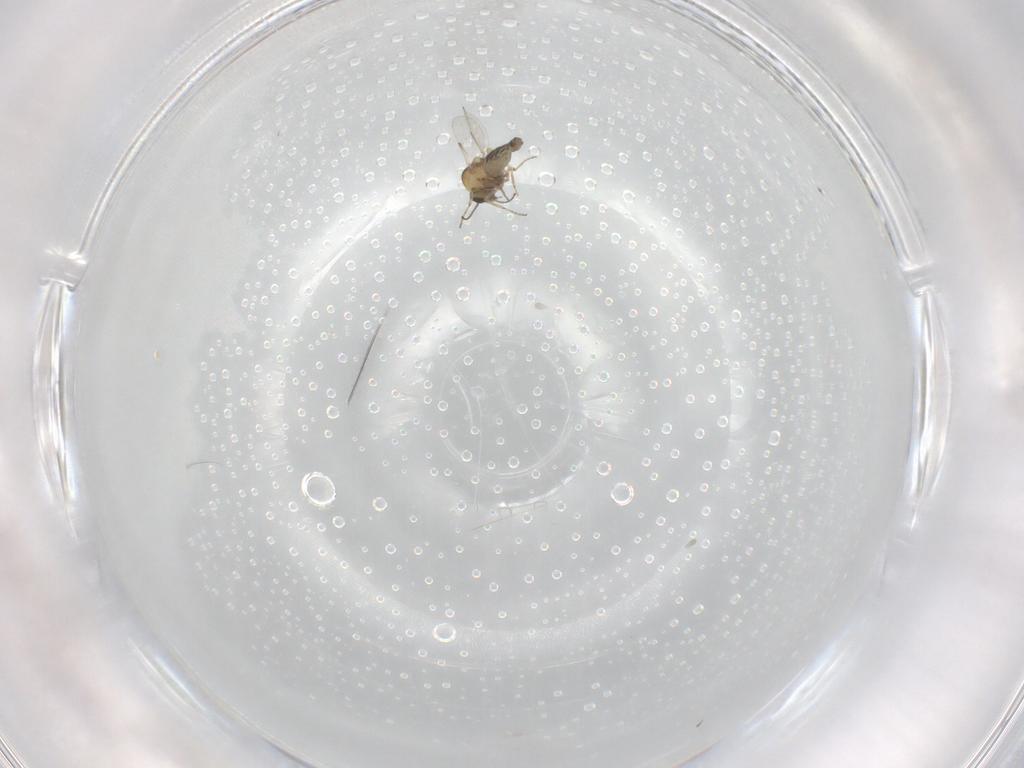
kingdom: Animalia
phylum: Arthropoda
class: Insecta
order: Diptera
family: Ceratopogonidae
